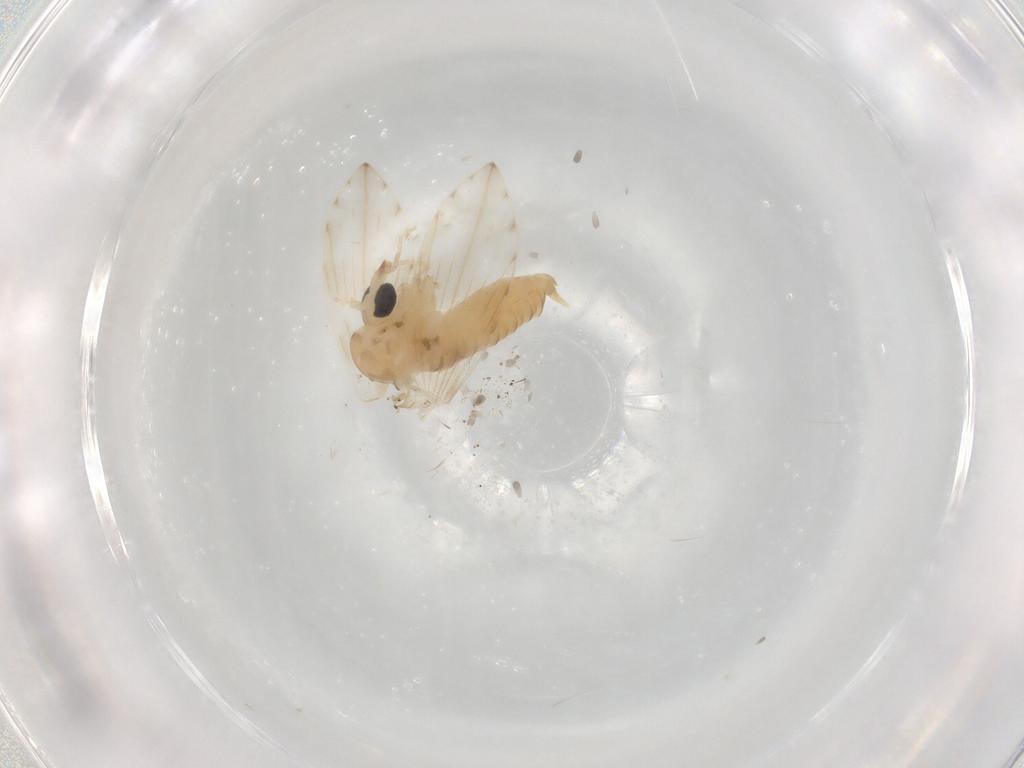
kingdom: Animalia
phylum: Arthropoda
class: Insecta
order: Diptera
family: Psychodidae
